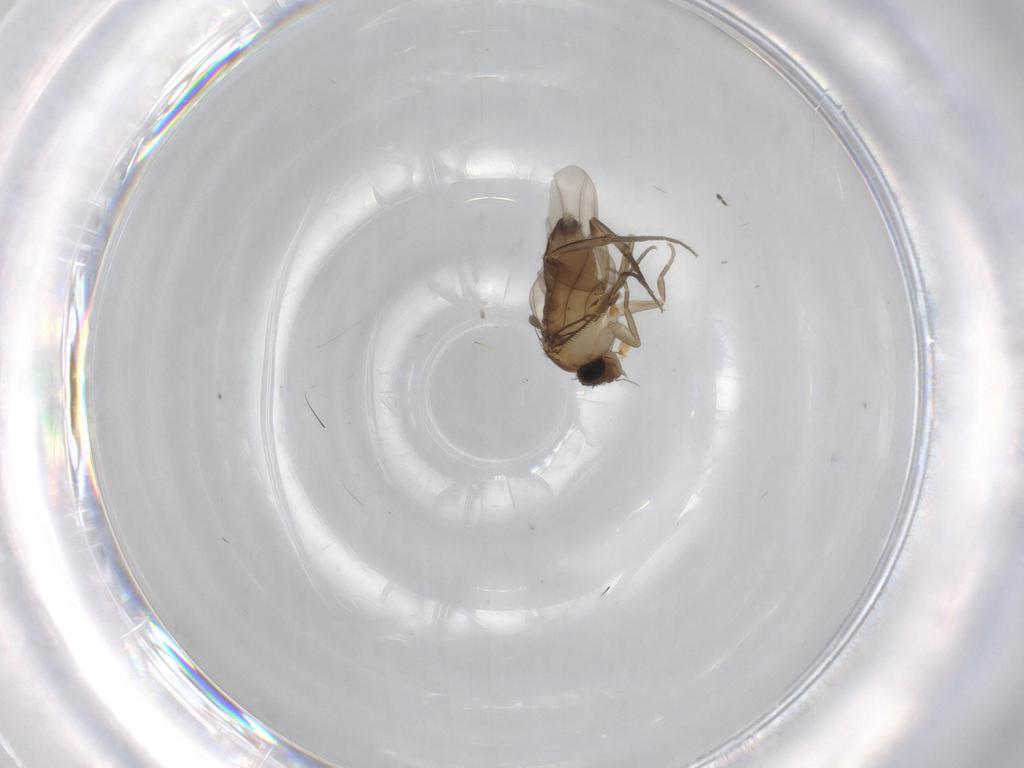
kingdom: Animalia
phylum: Arthropoda
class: Insecta
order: Diptera
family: Phoridae
